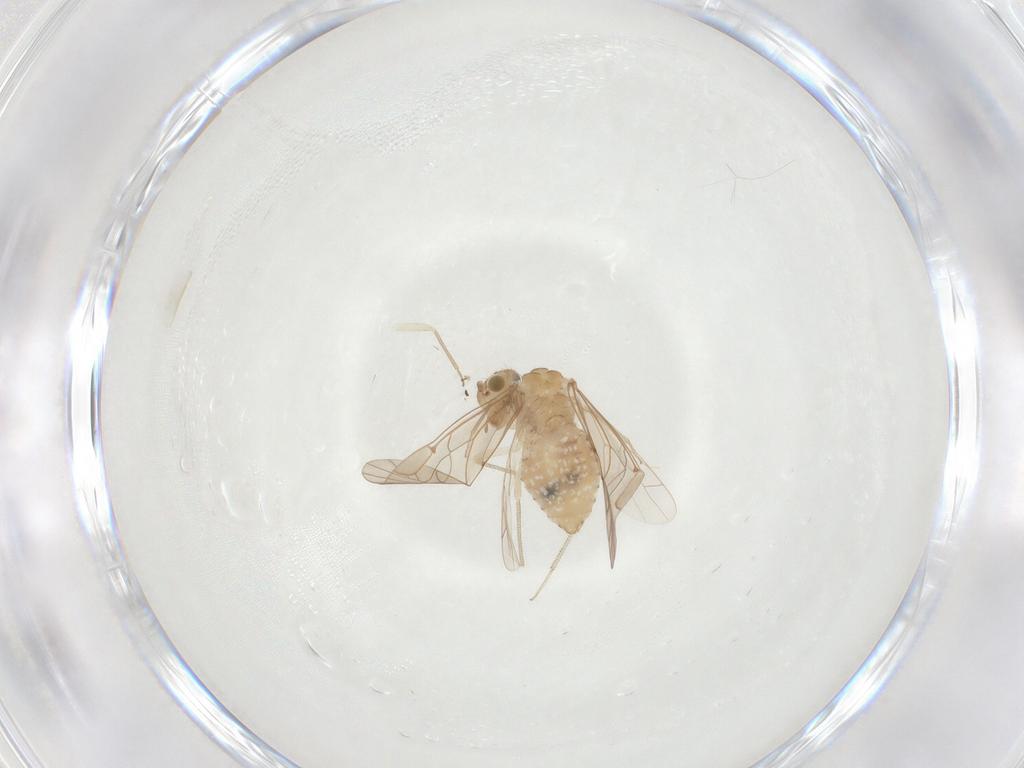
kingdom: Animalia
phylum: Arthropoda
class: Insecta
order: Psocodea
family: Lachesillidae
